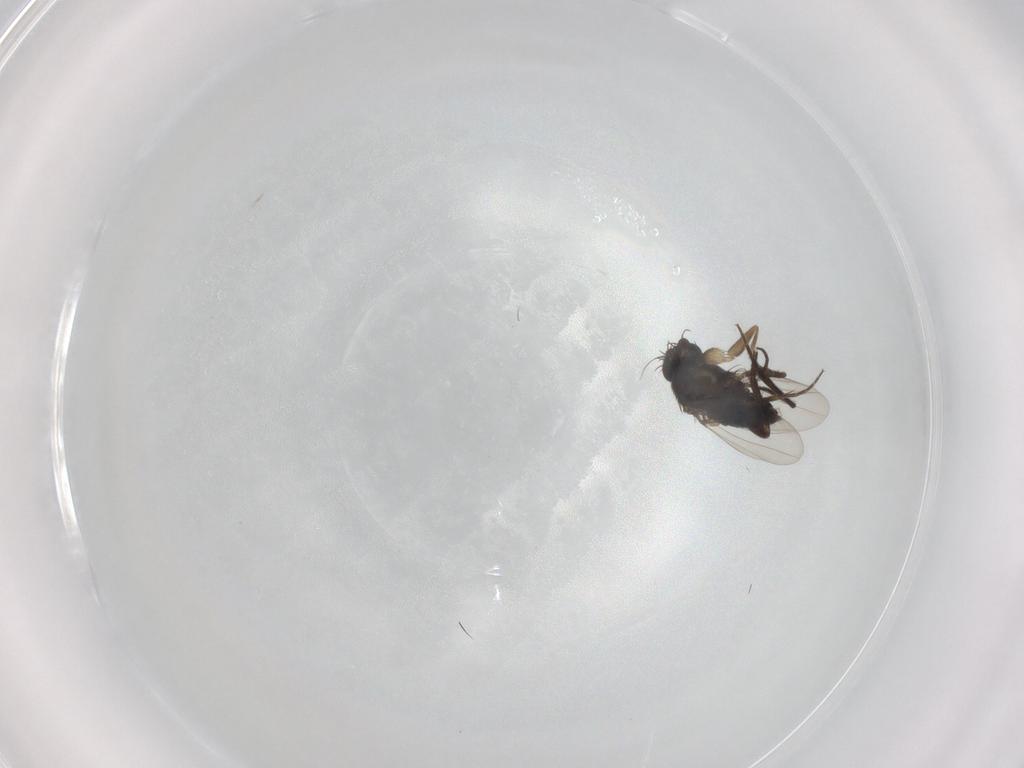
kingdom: Animalia
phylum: Arthropoda
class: Insecta
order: Diptera
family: Phoridae
